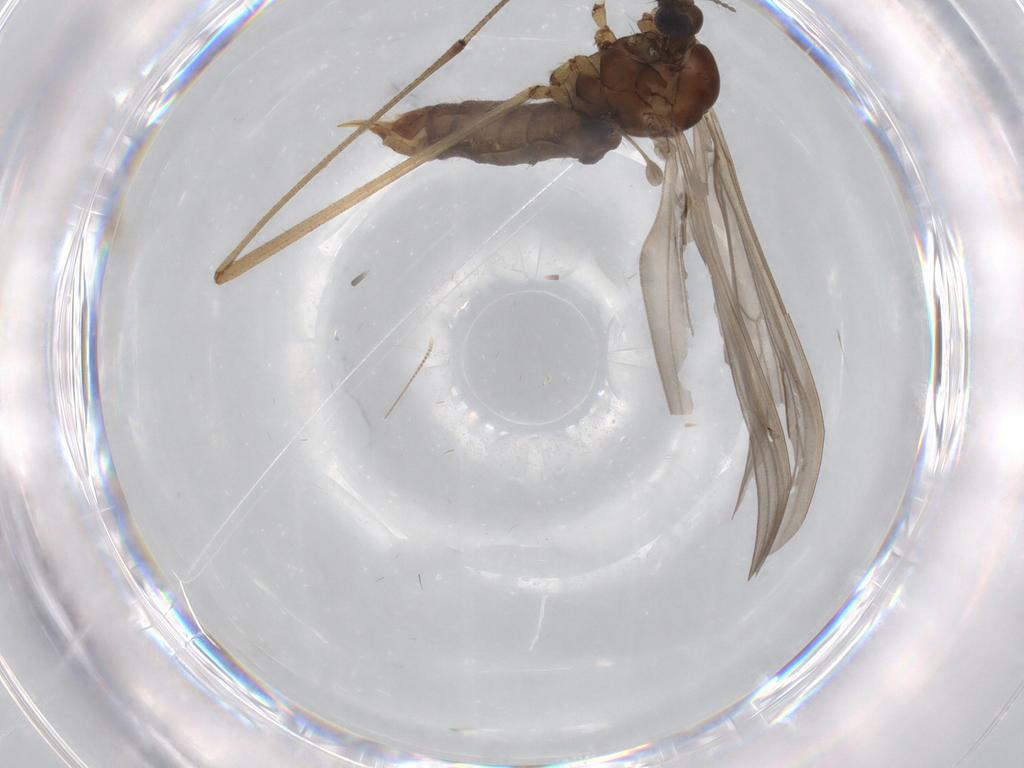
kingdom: Animalia
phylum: Arthropoda
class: Insecta
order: Diptera
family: Limoniidae
